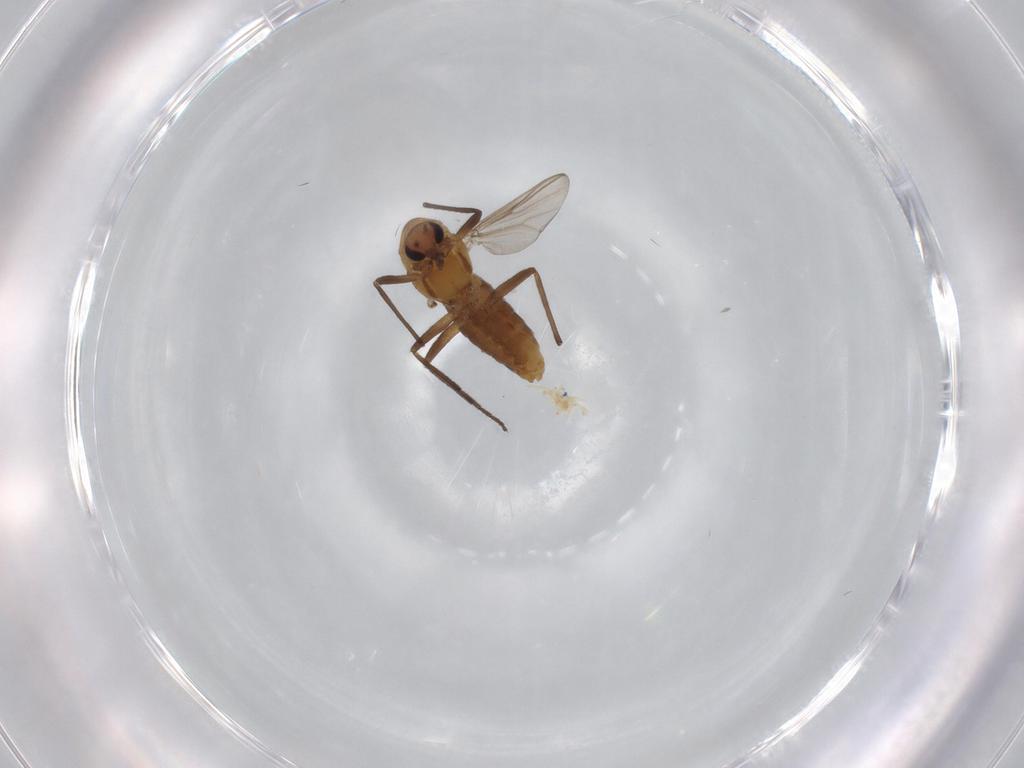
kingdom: Animalia
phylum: Arthropoda
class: Insecta
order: Diptera
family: Chironomidae
